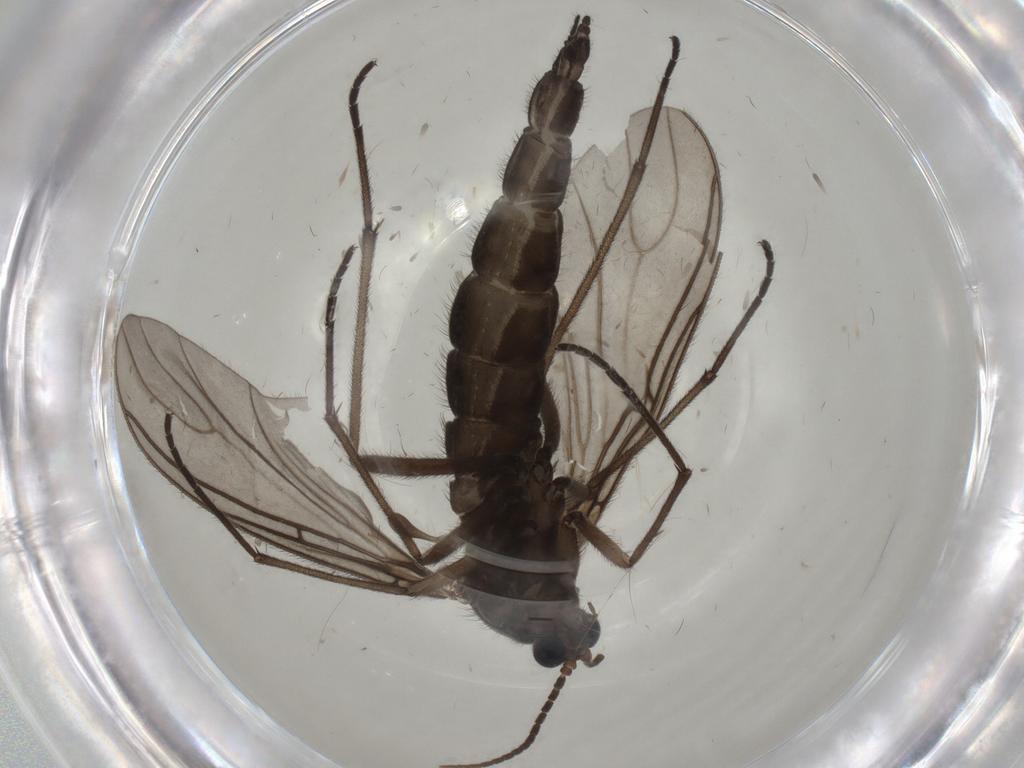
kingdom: Animalia
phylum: Arthropoda
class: Insecta
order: Diptera
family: Sciaridae
